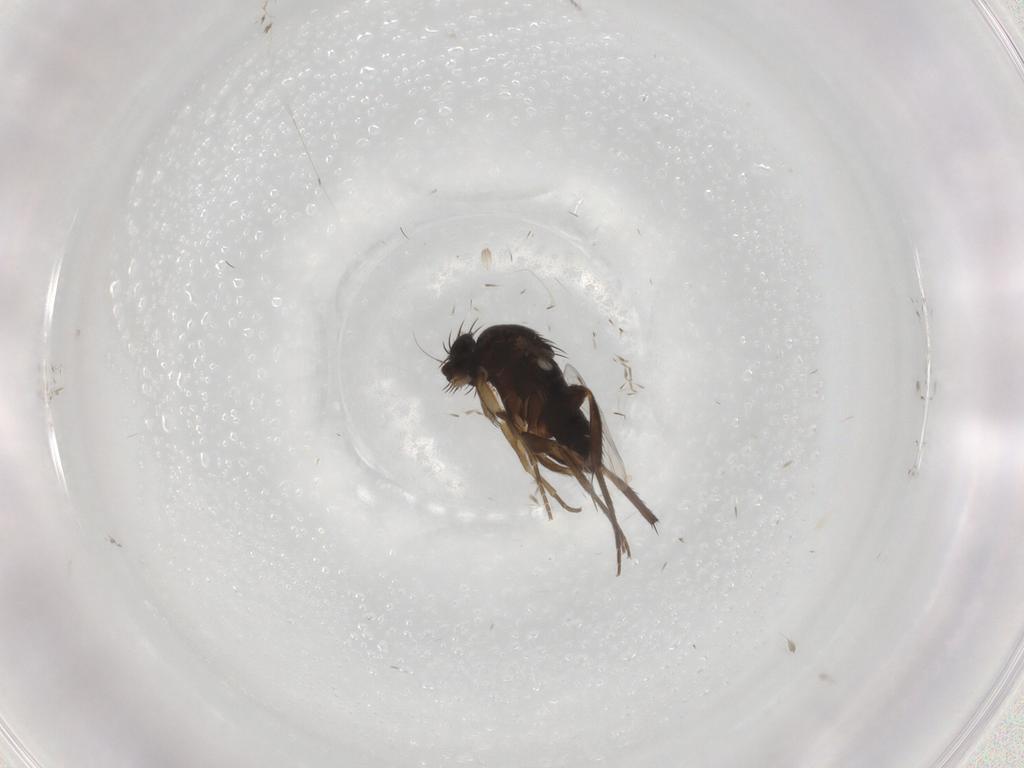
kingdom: Animalia
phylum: Arthropoda
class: Insecta
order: Diptera
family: Phoridae
